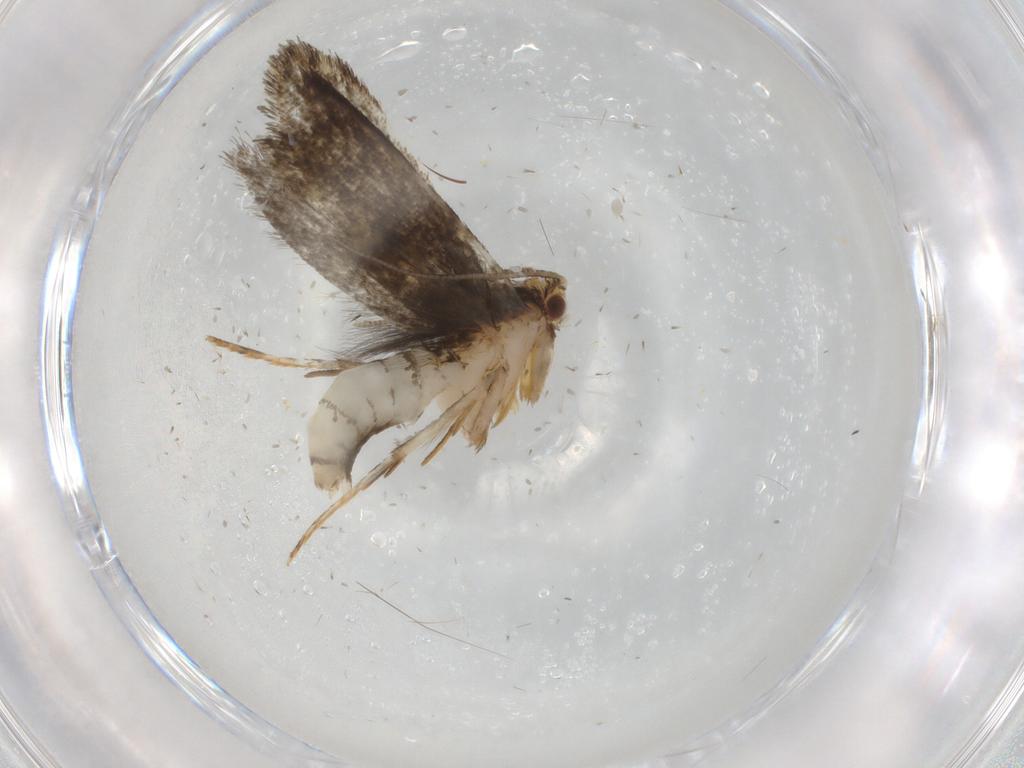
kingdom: Animalia
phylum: Arthropoda
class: Insecta
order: Lepidoptera
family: Tineidae
